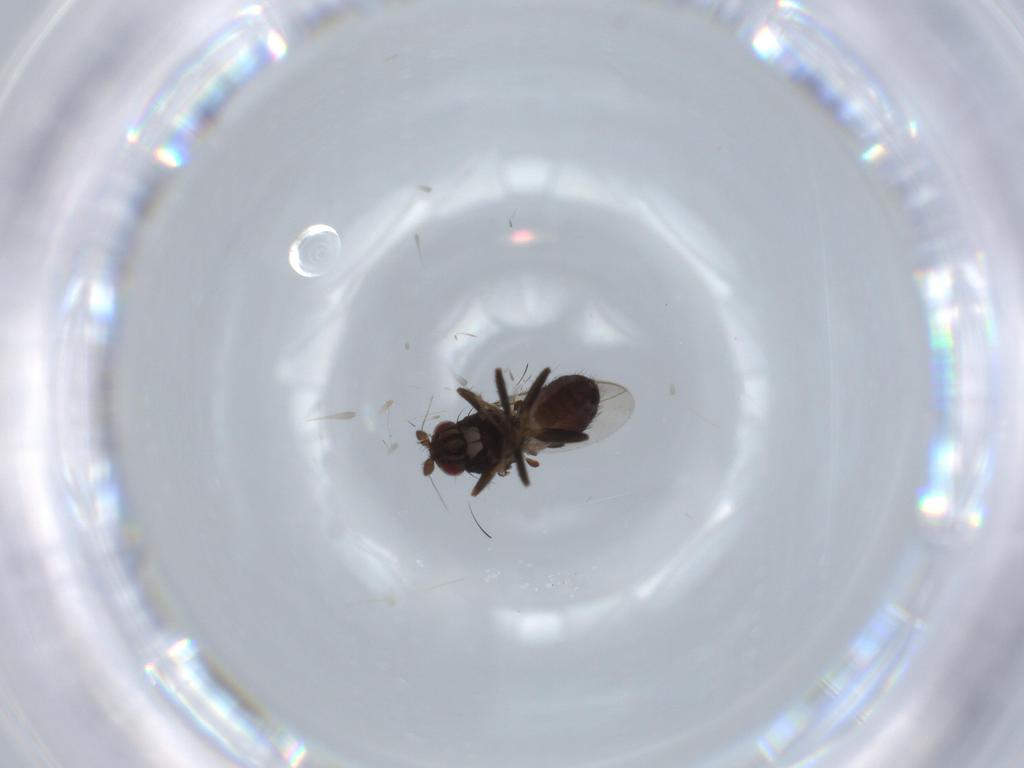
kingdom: Animalia
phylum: Arthropoda
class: Insecta
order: Diptera
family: Sphaeroceridae
